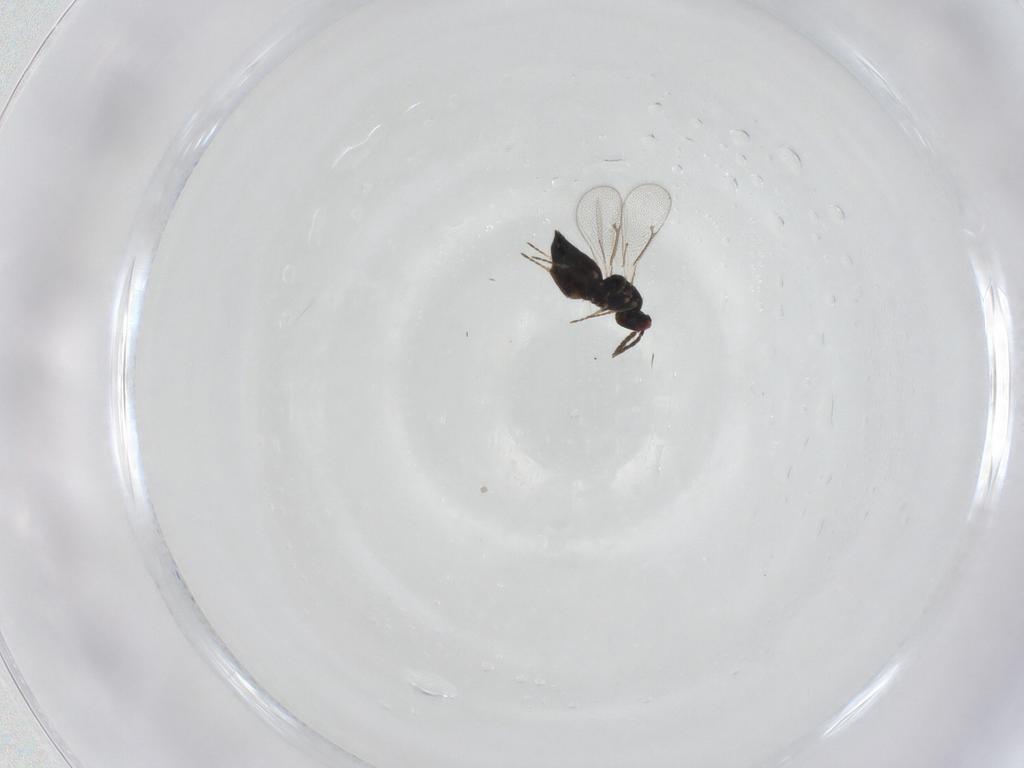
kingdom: Animalia
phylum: Arthropoda
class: Insecta
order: Hymenoptera
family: Eulophidae
